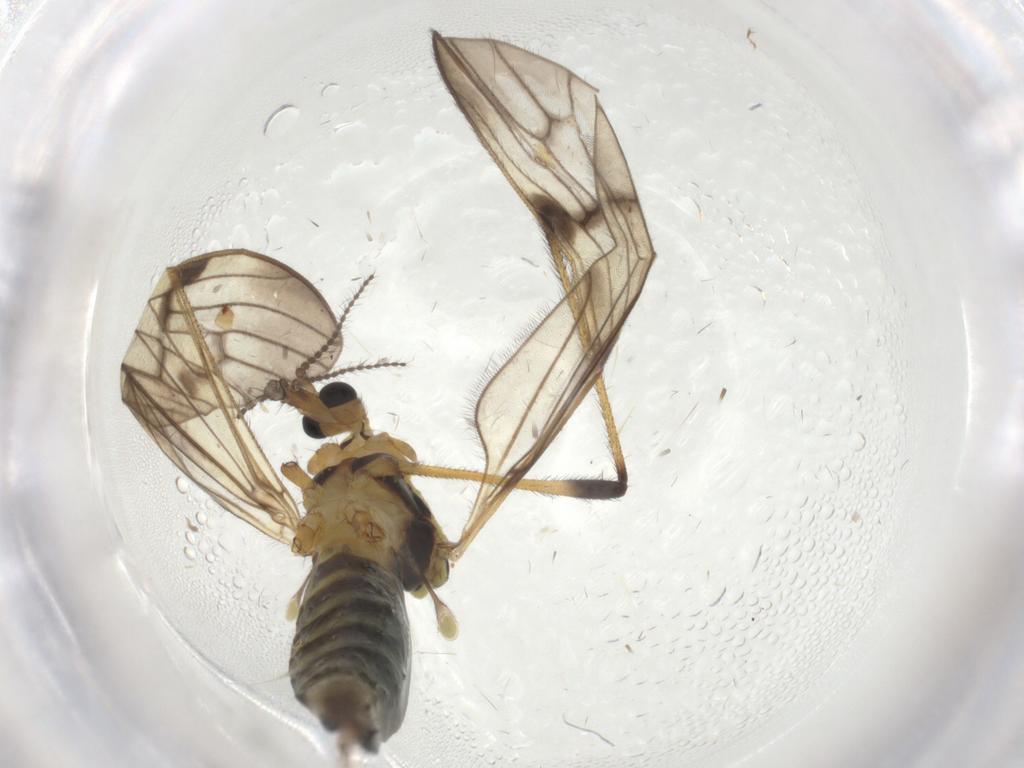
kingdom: Animalia
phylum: Arthropoda
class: Insecta
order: Diptera
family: Limoniidae
